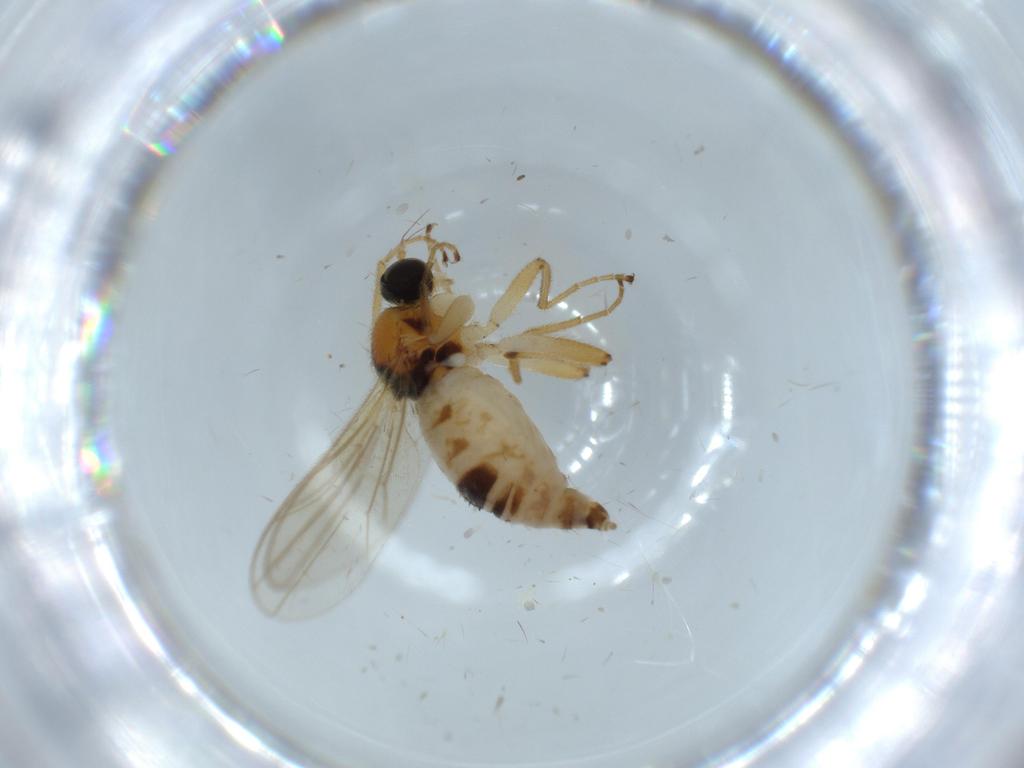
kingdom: Animalia
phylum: Arthropoda
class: Insecta
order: Diptera
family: Hybotidae
